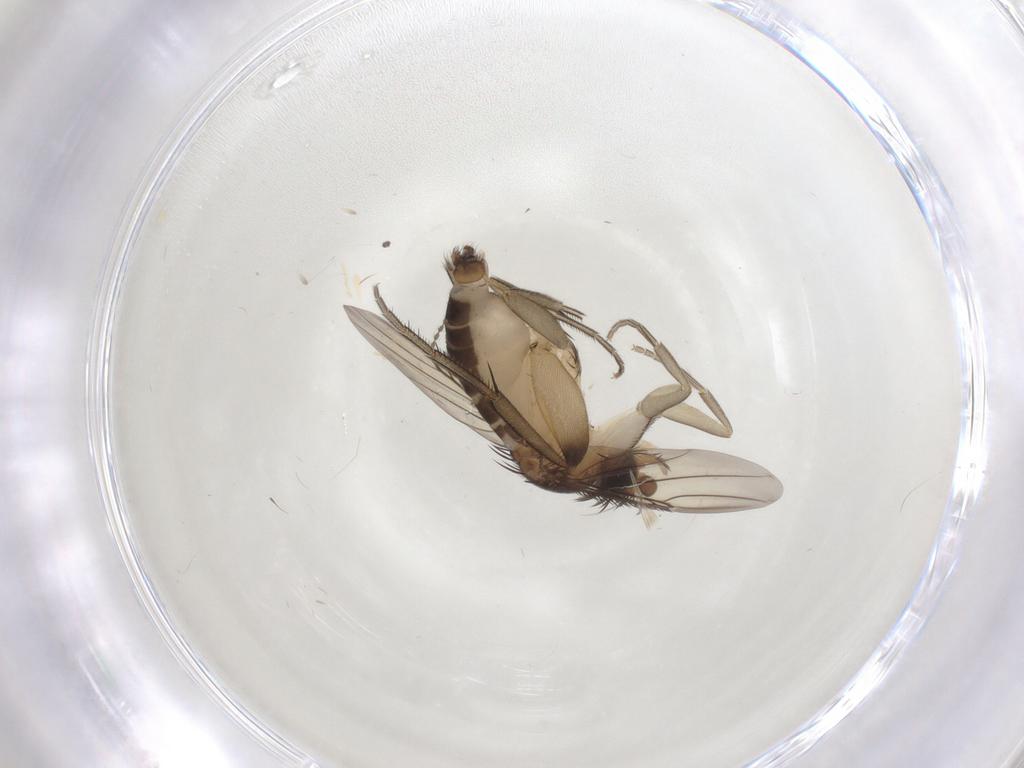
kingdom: Animalia
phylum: Arthropoda
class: Insecta
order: Diptera
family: Phoridae
